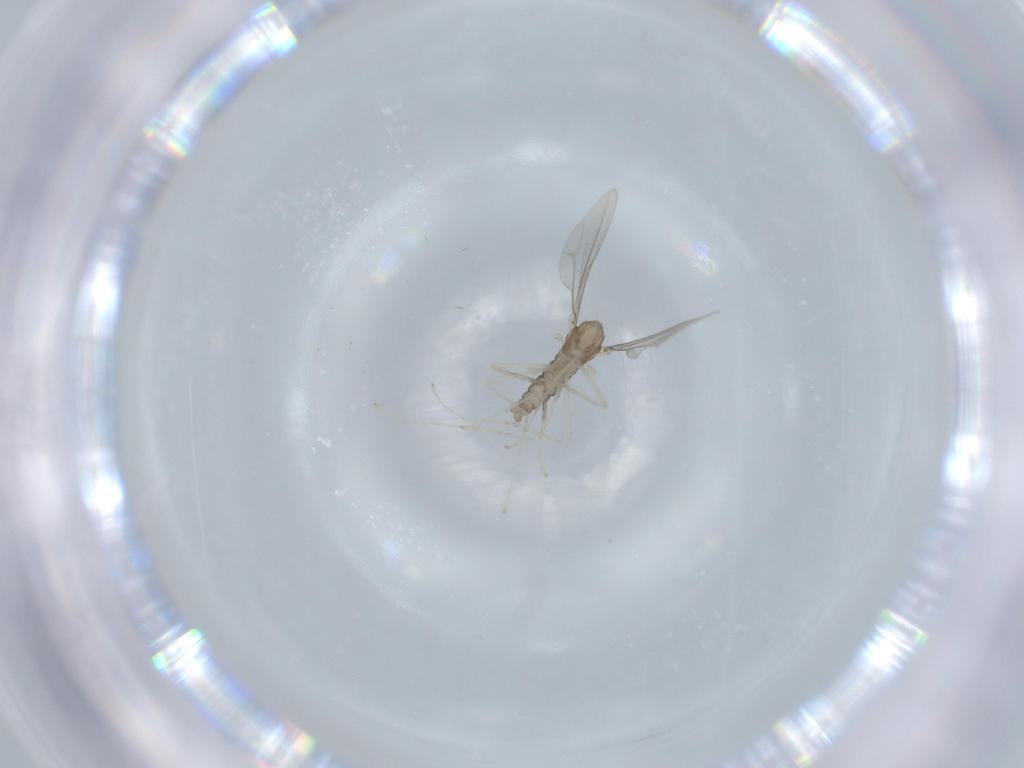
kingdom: Animalia
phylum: Arthropoda
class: Insecta
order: Diptera
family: Cecidomyiidae
